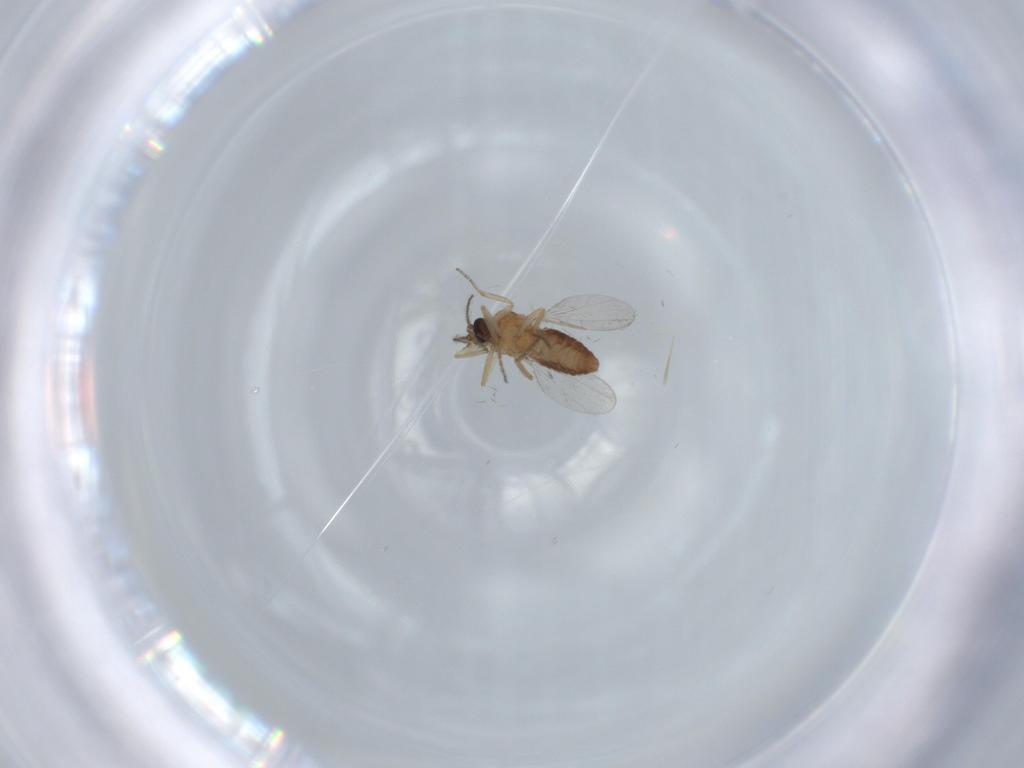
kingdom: Animalia
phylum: Arthropoda
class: Insecta
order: Diptera
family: Ceratopogonidae
